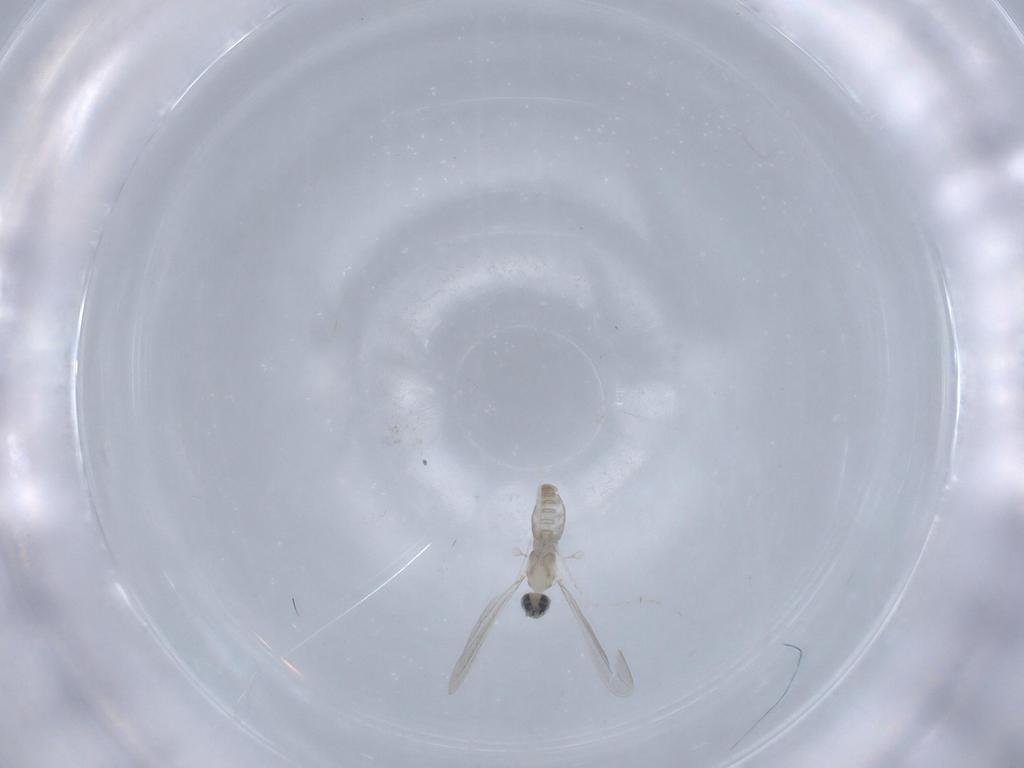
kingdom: Animalia
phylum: Arthropoda
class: Insecta
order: Diptera
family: Tabanidae
